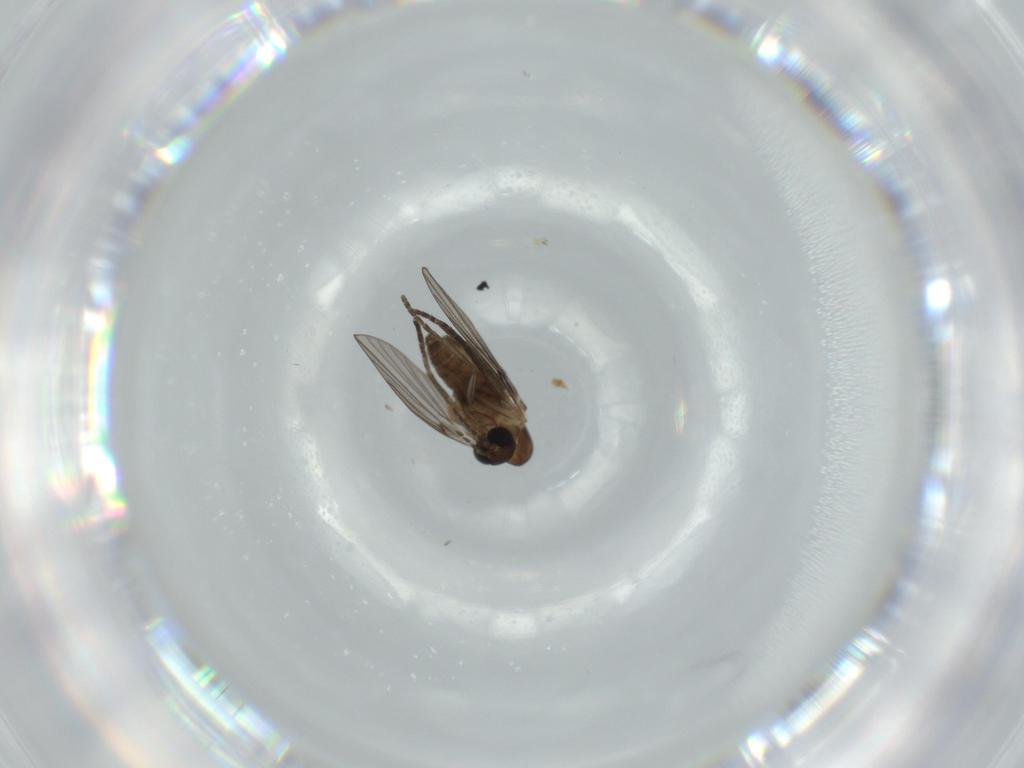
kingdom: Animalia
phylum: Arthropoda
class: Insecta
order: Diptera
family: Psychodidae
